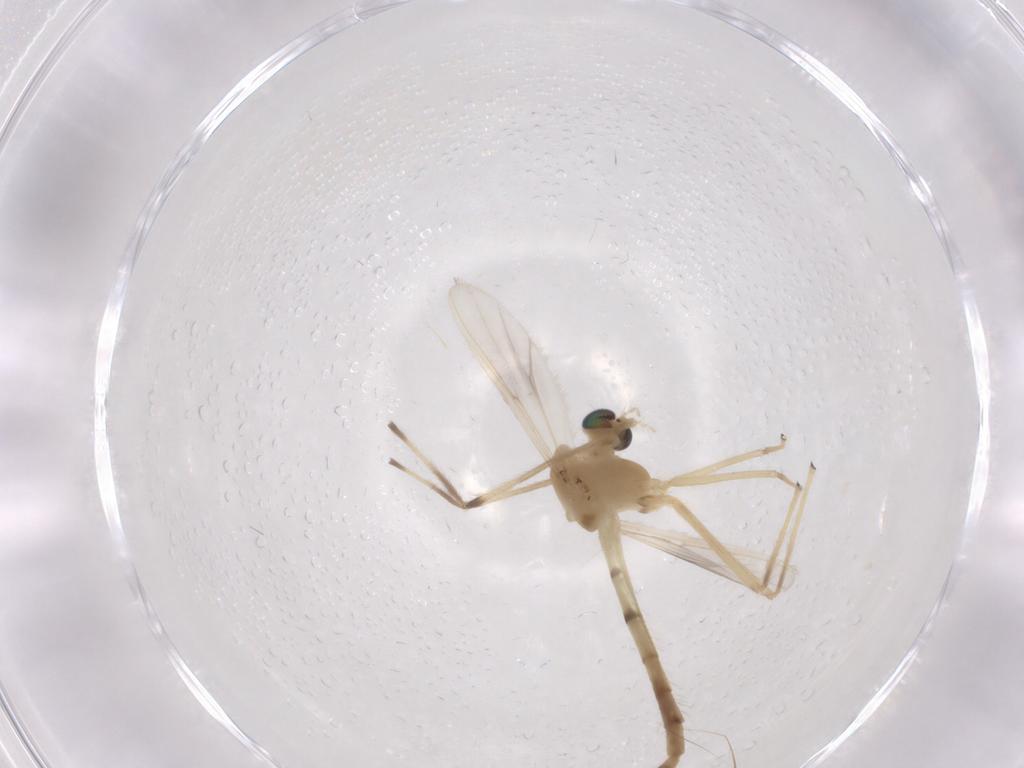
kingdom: Animalia
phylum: Arthropoda
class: Insecta
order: Diptera
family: Chironomidae
